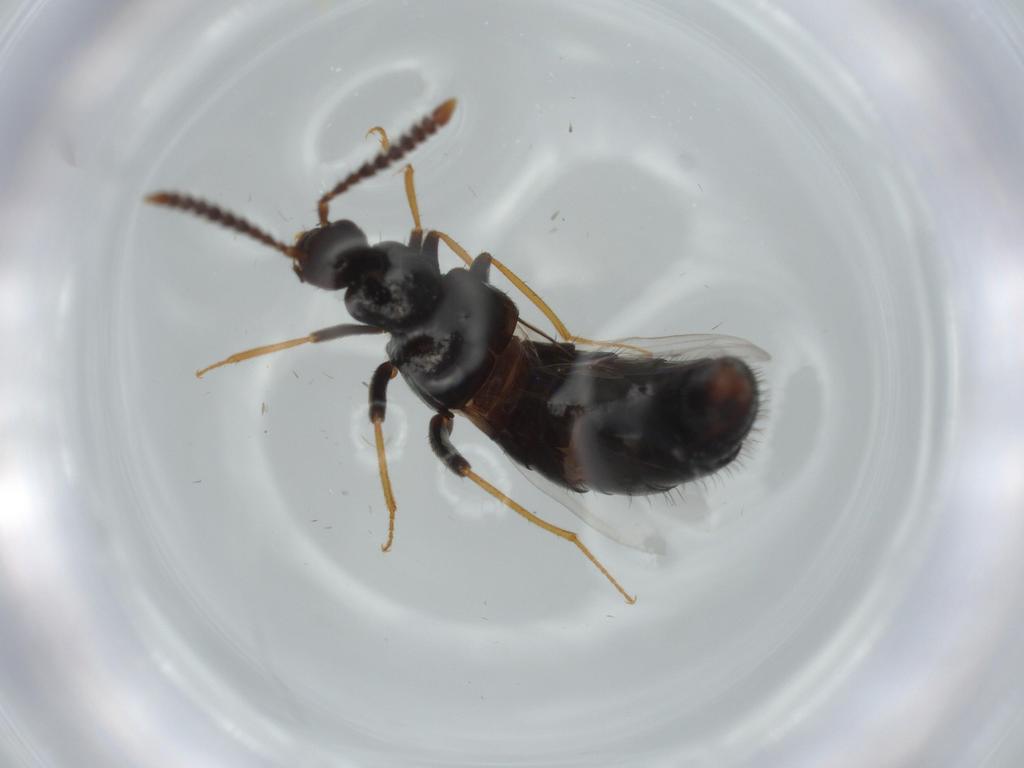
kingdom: Animalia
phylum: Arthropoda
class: Insecta
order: Coleoptera
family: Staphylinidae
